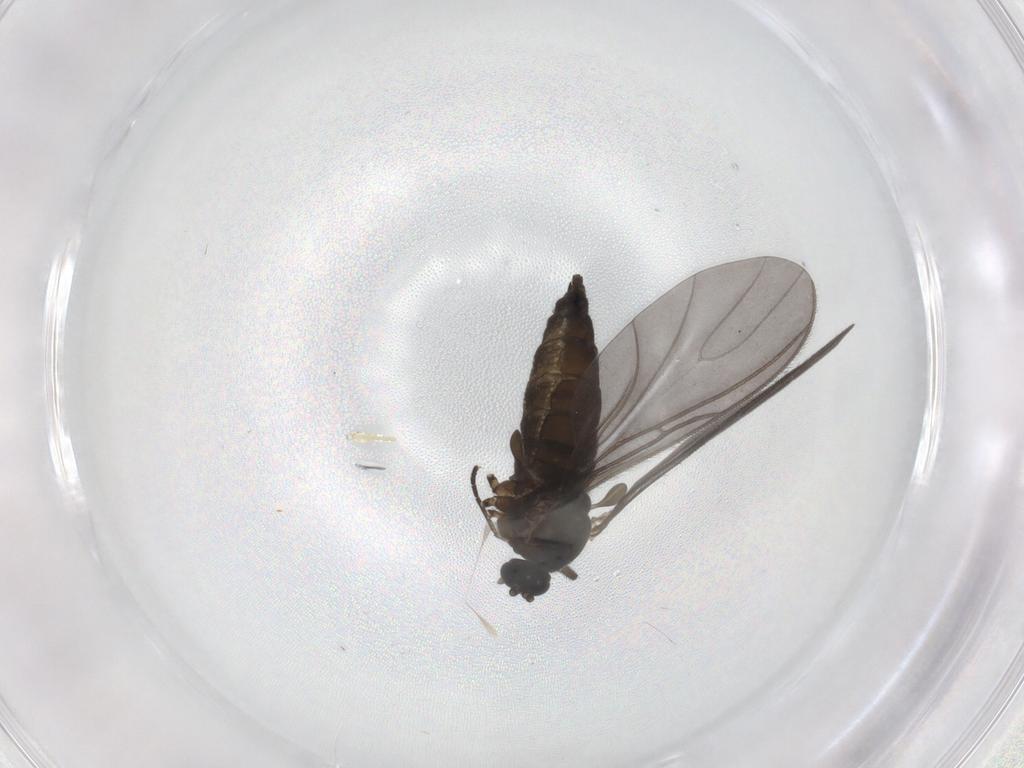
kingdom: Animalia
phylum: Arthropoda
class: Insecta
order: Diptera
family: Sciaridae
